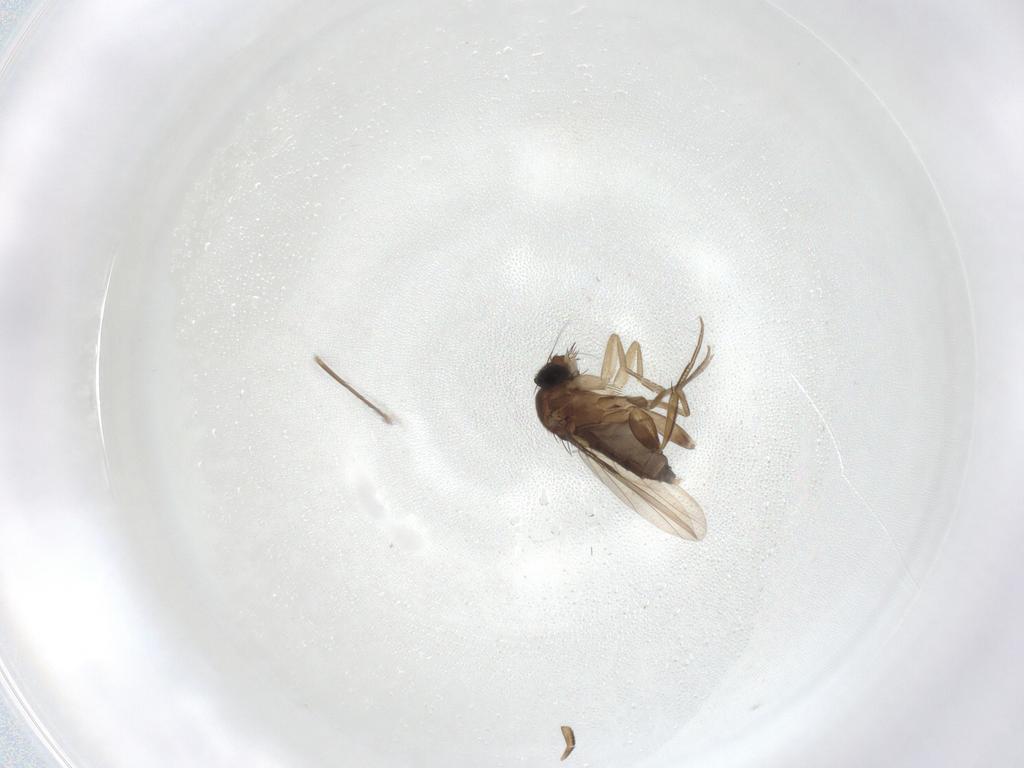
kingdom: Animalia
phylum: Arthropoda
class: Insecta
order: Diptera
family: Phoridae
